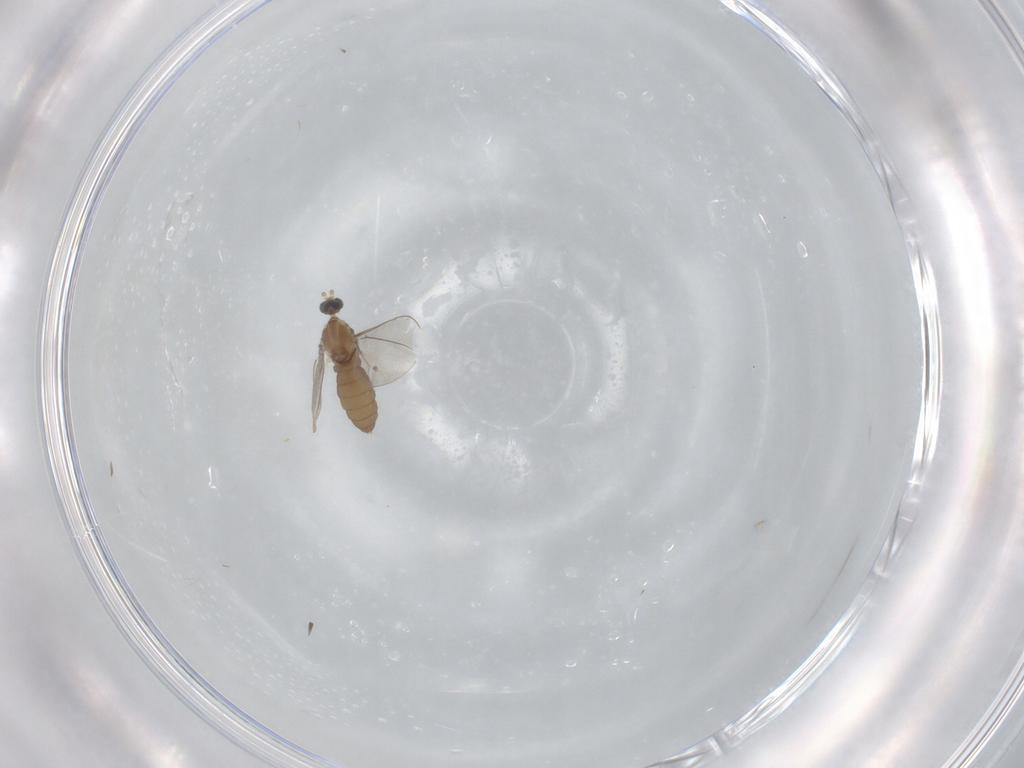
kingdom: Animalia
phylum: Arthropoda
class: Insecta
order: Diptera
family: Cecidomyiidae
